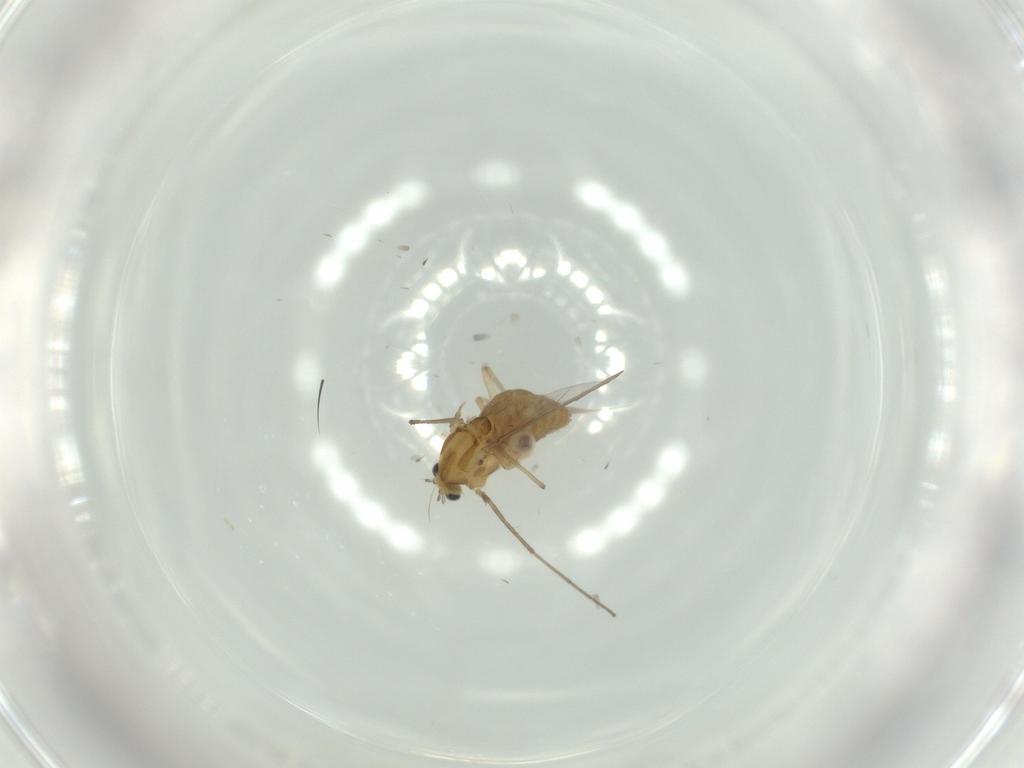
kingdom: Animalia
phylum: Arthropoda
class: Insecta
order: Diptera
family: Chironomidae
